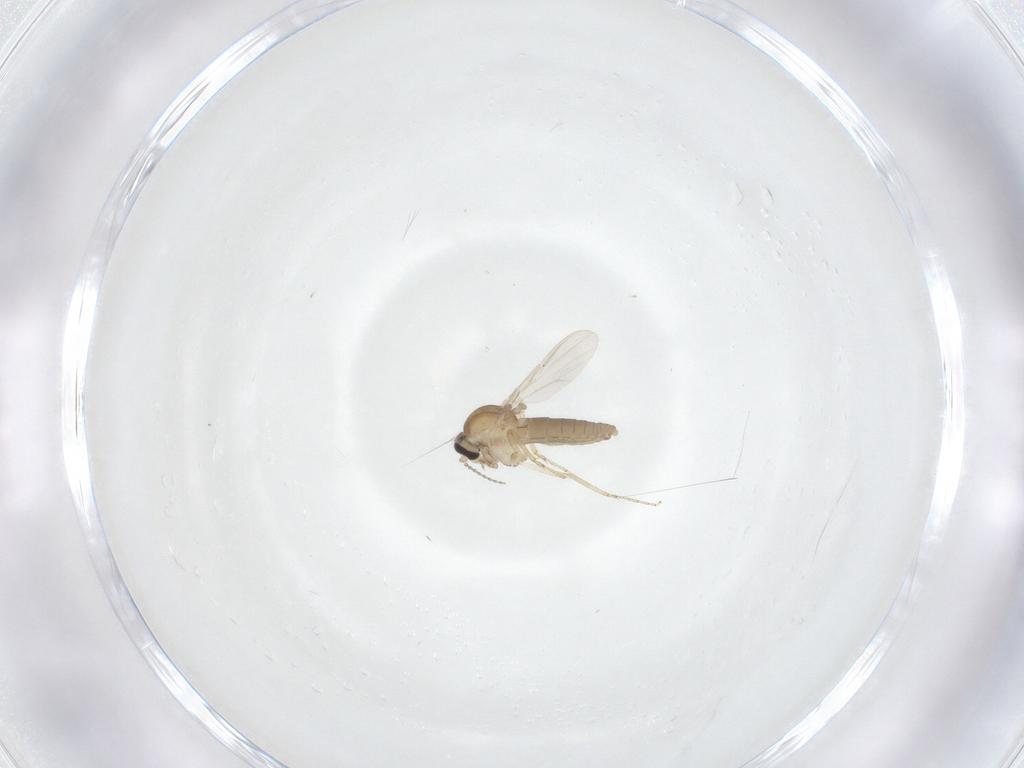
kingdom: Animalia
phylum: Arthropoda
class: Insecta
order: Diptera
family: Ceratopogonidae
